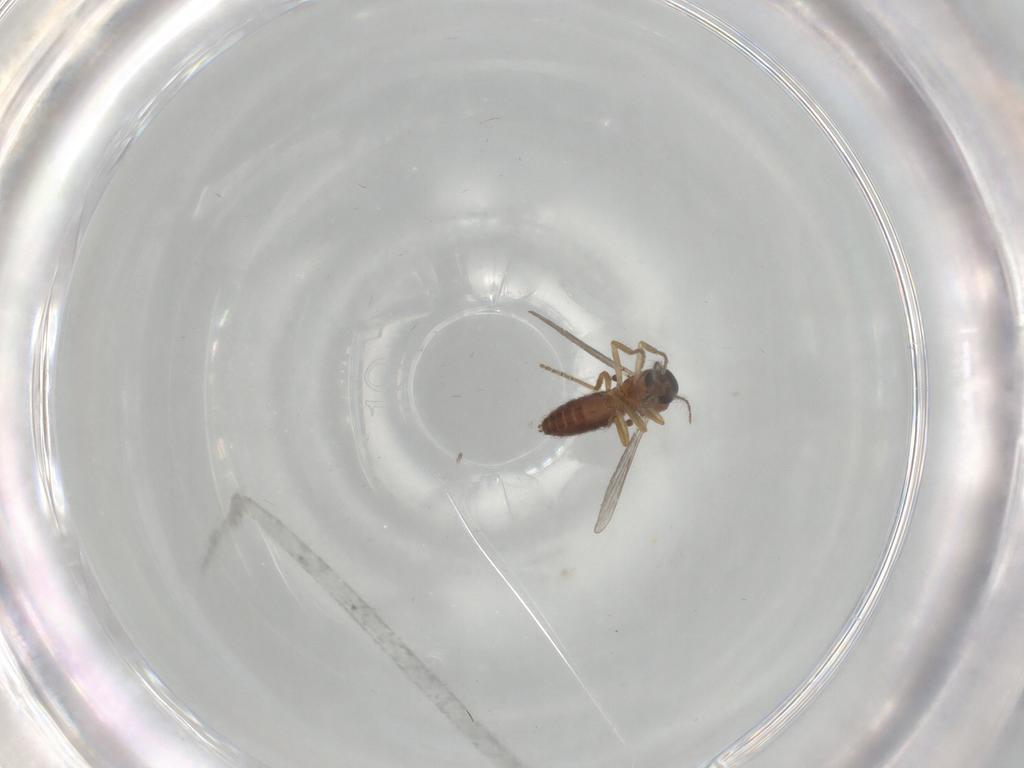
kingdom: Animalia
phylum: Arthropoda
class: Insecta
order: Diptera
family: Ceratopogonidae
